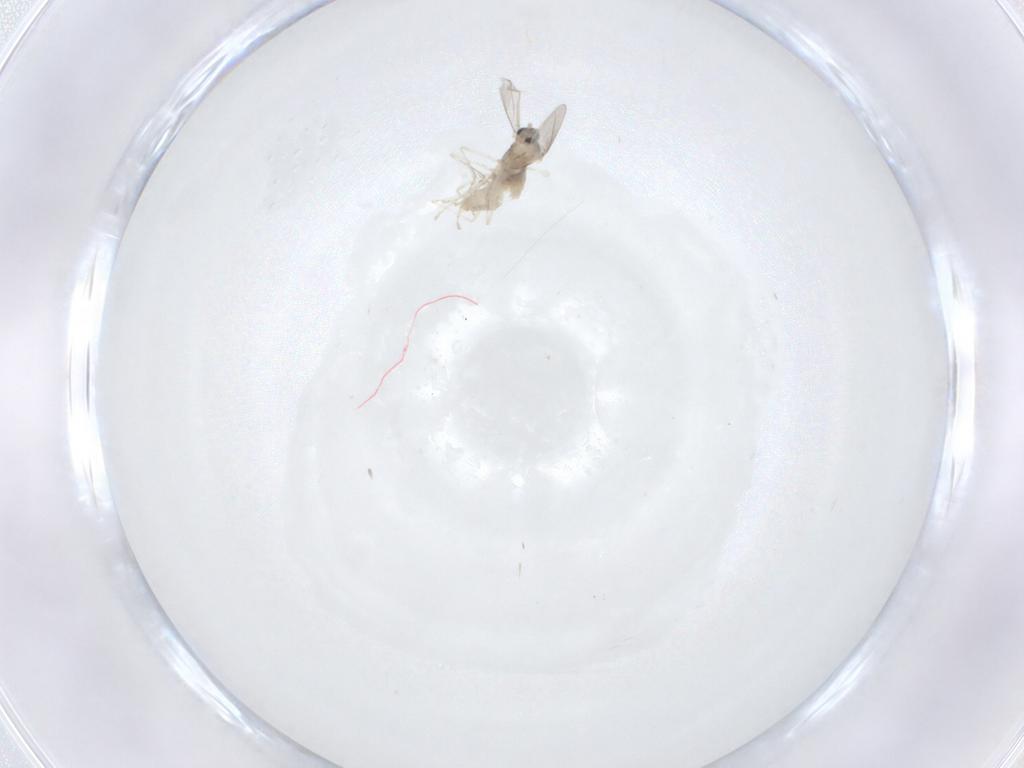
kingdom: Animalia
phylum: Arthropoda
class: Insecta
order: Diptera
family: Cecidomyiidae
